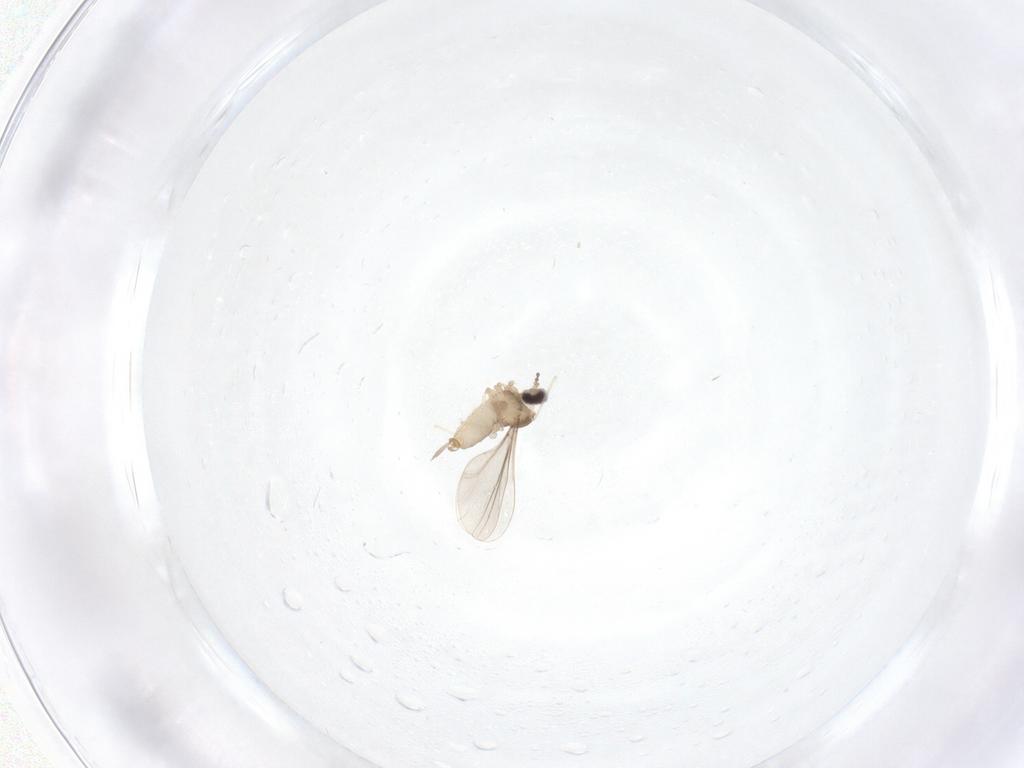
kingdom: Animalia
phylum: Arthropoda
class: Insecta
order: Diptera
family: Cecidomyiidae
